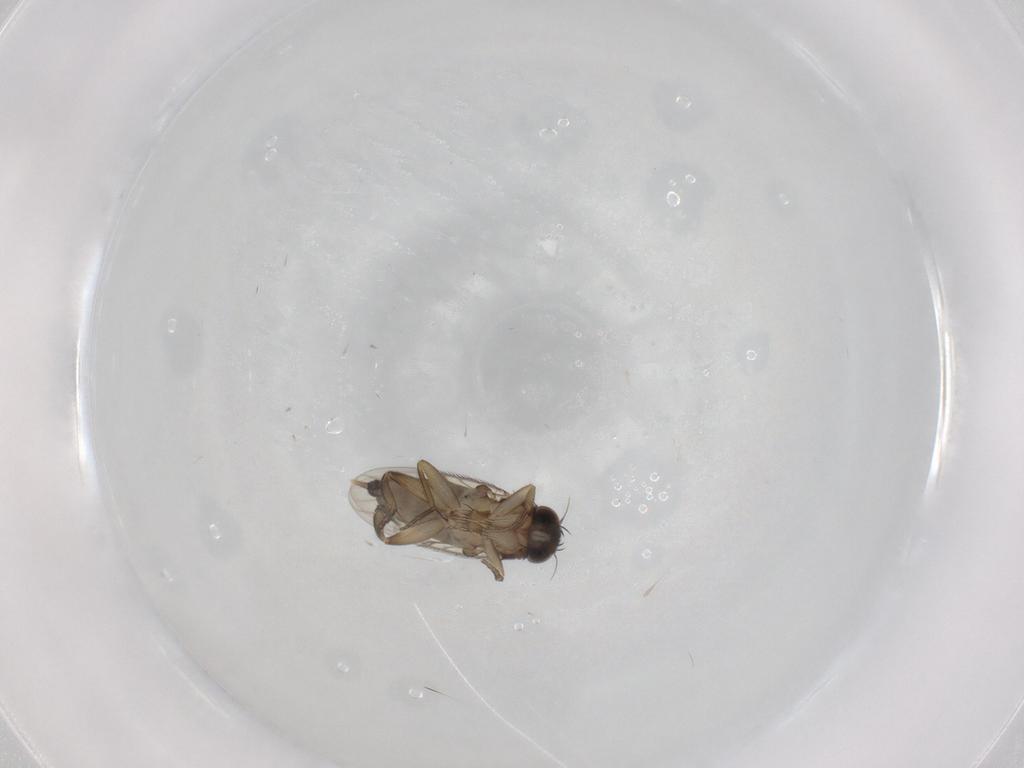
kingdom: Animalia
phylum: Arthropoda
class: Insecta
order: Diptera
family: Phoridae
